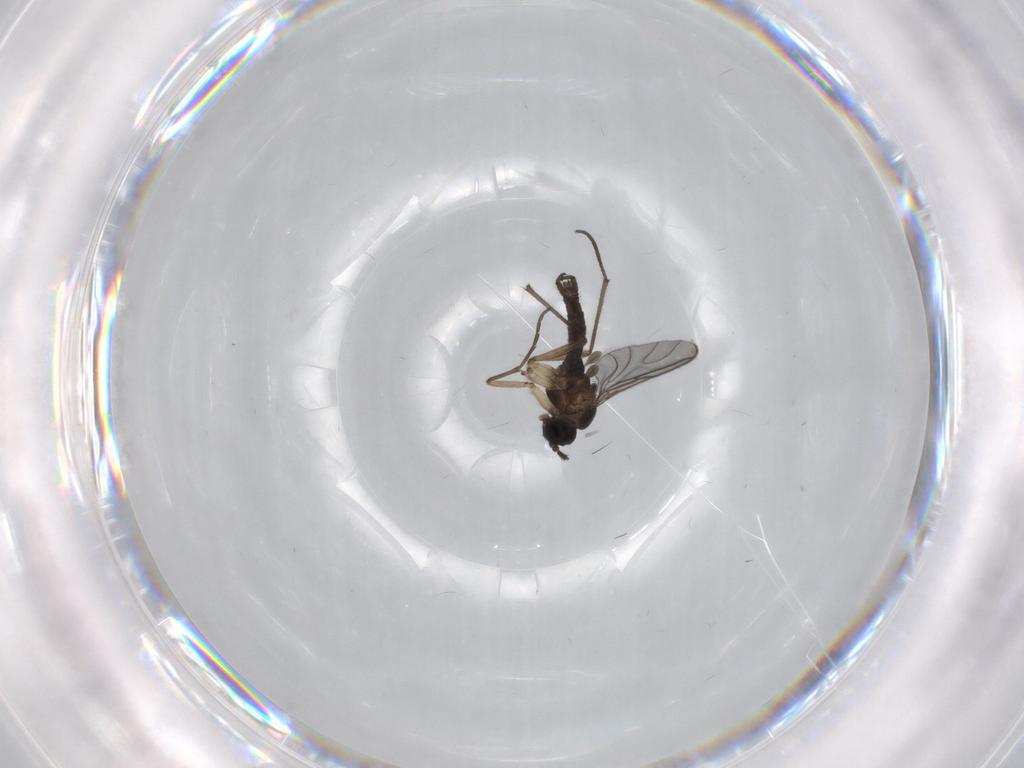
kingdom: Animalia
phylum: Arthropoda
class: Insecta
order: Diptera
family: Sciaridae
